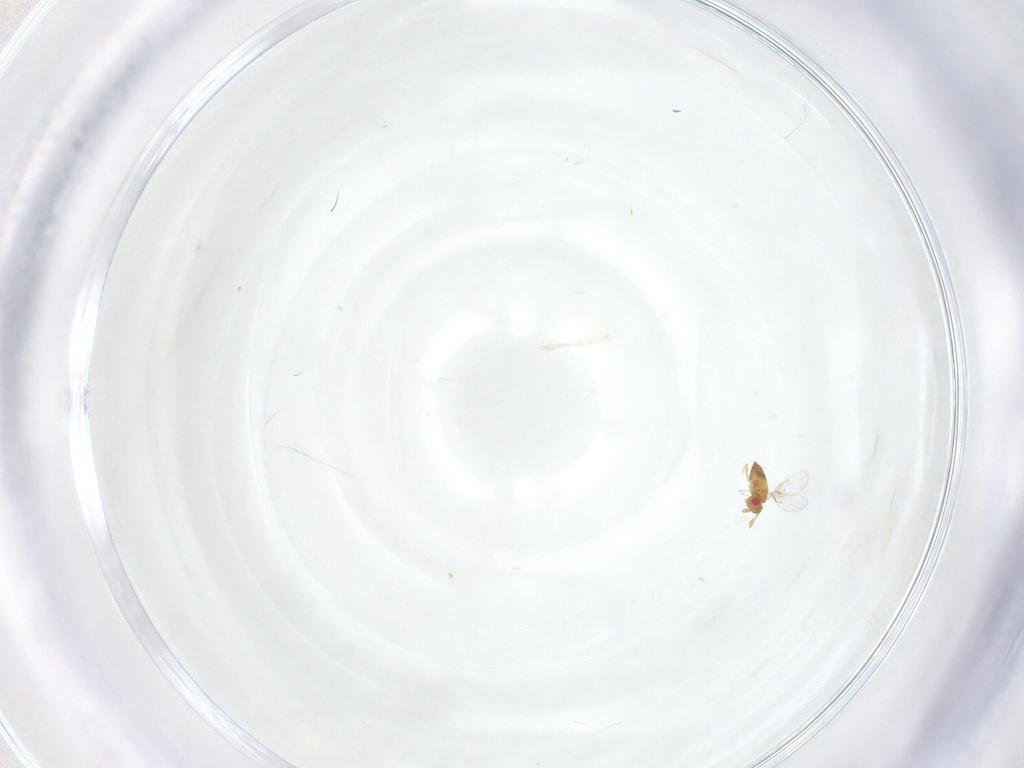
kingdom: Animalia
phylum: Arthropoda
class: Insecta
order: Hymenoptera
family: Trichogrammatidae
